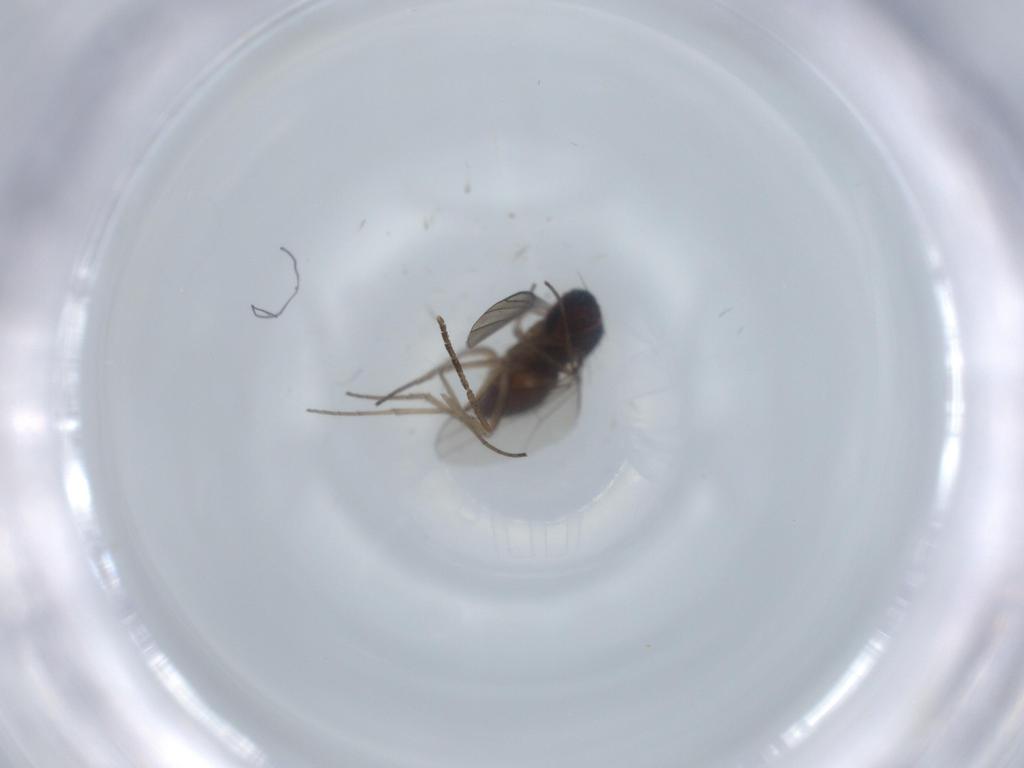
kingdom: Animalia
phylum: Arthropoda
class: Insecta
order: Diptera
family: Dolichopodidae
